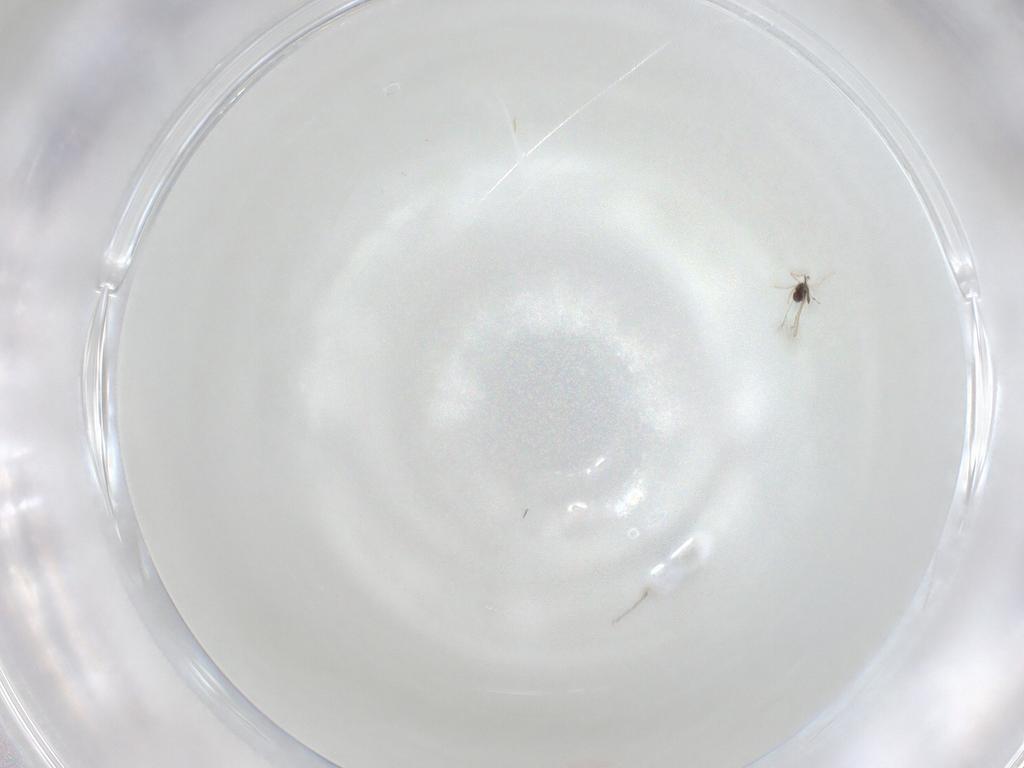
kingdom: Animalia
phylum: Arthropoda
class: Insecta
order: Hymenoptera
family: Mymaridae
